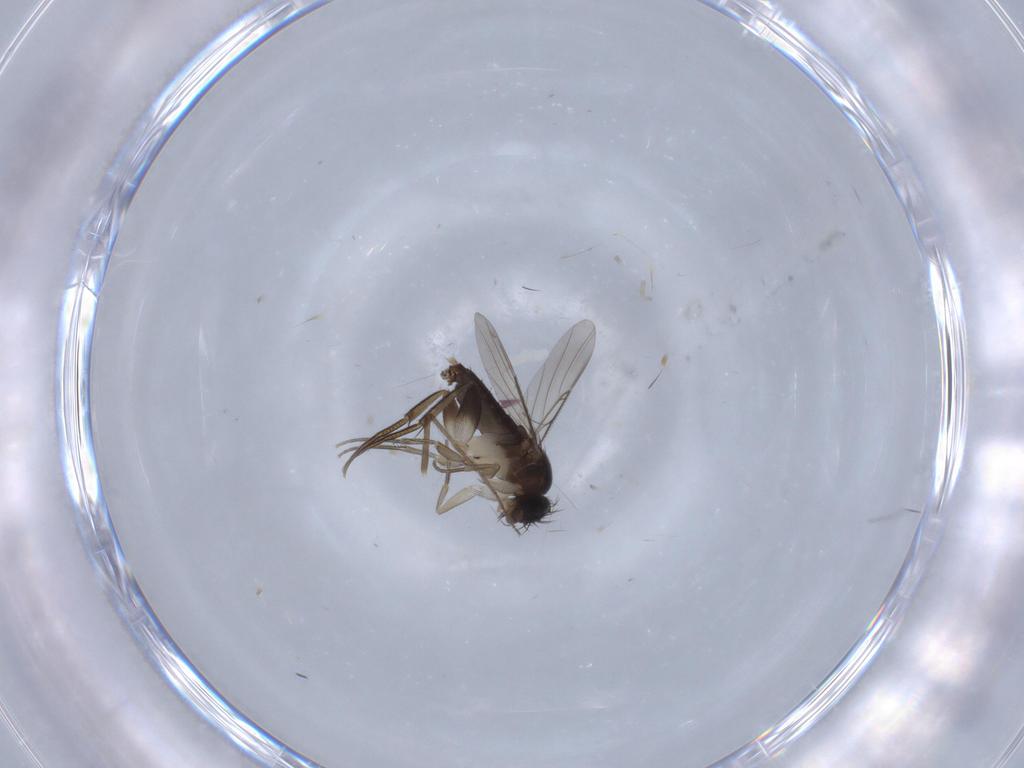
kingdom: Animalia
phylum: Arthropoda
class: Insecta
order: Diptera
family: Phoridae
